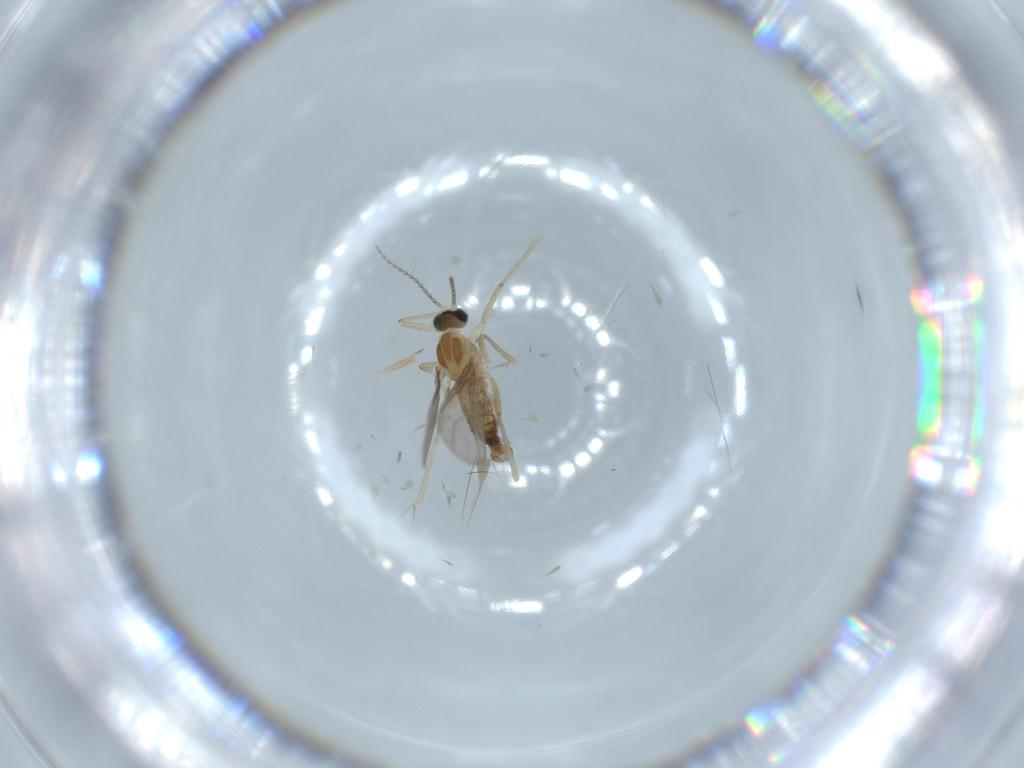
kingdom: Animalia
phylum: Arthropoda
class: Insecta
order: Diptera
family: Cecidomyiidae
